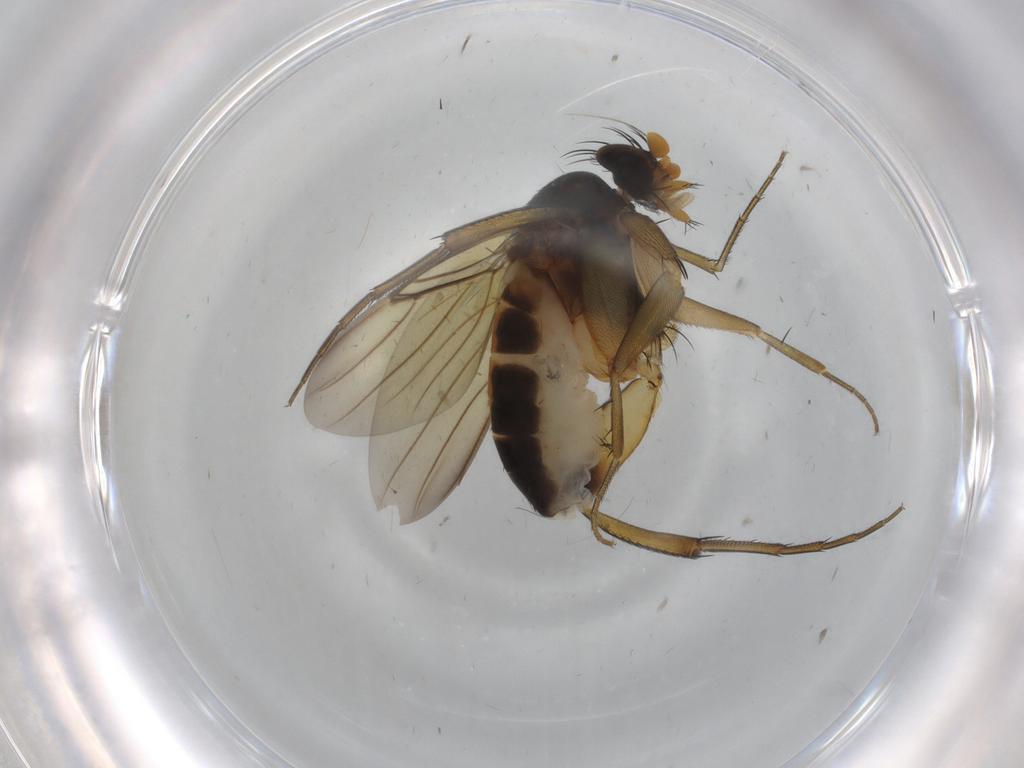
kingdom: Animalia
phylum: Arthropoda
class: Insecta
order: Diptera
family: Phoridae
